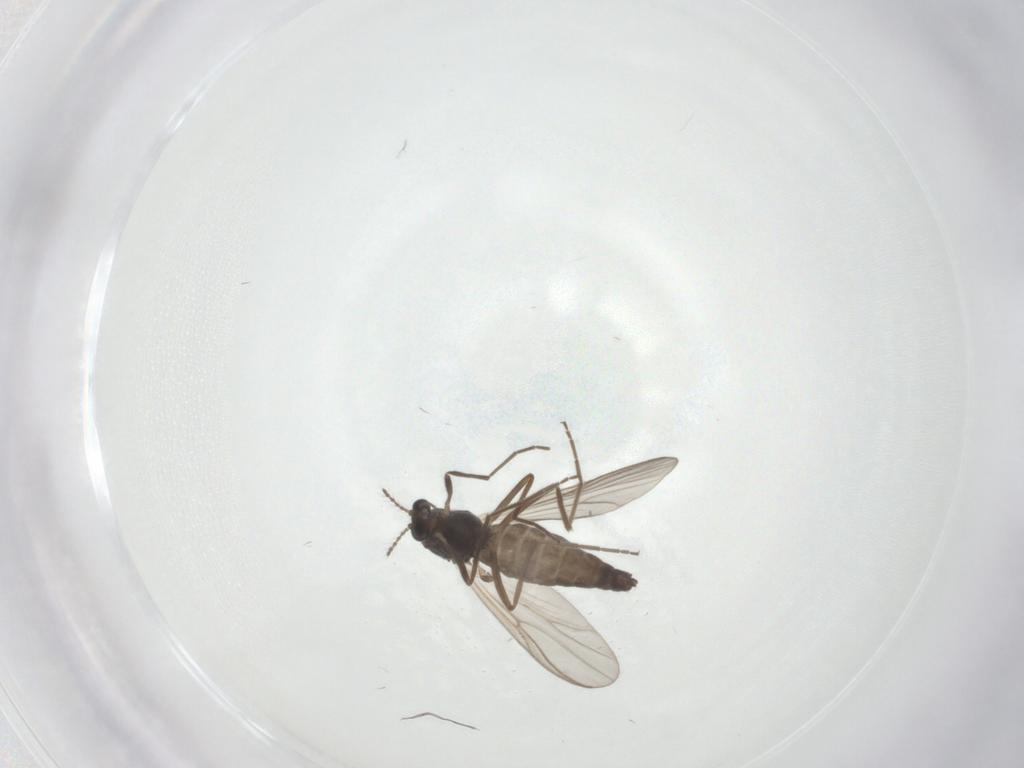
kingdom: Animalia
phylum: Arthropoda
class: Insecta
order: Diptera
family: Chironomidae
